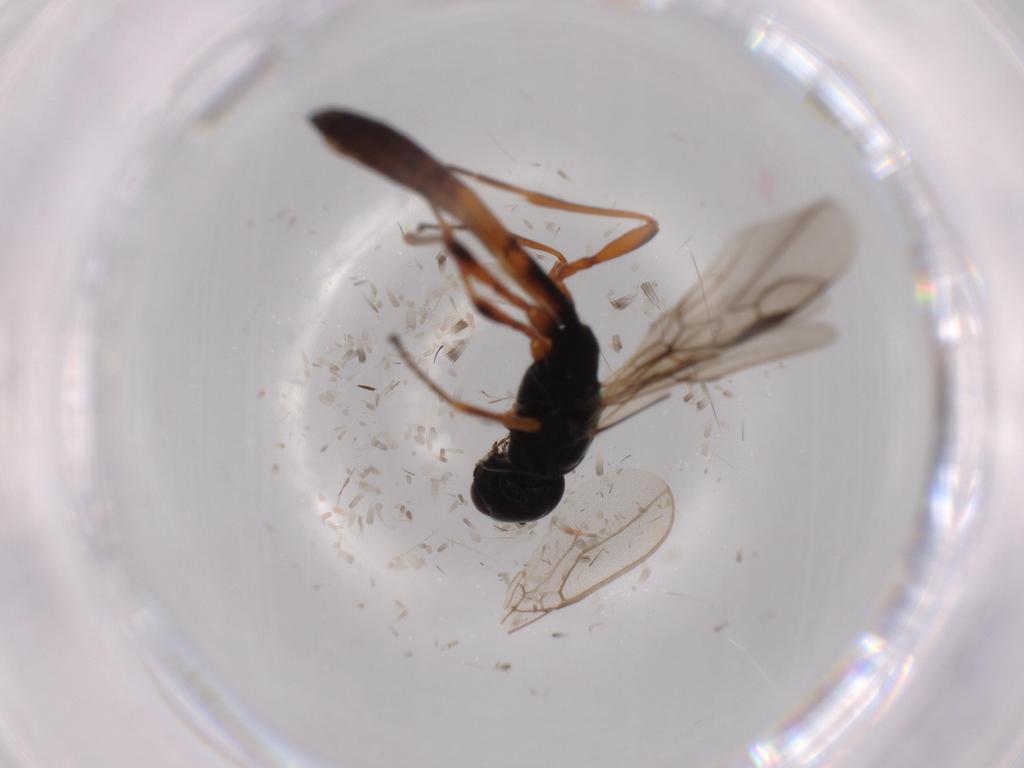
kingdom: Animalia
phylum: Arthropoda
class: Insecta
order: Hymenoptera
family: Braconidae
